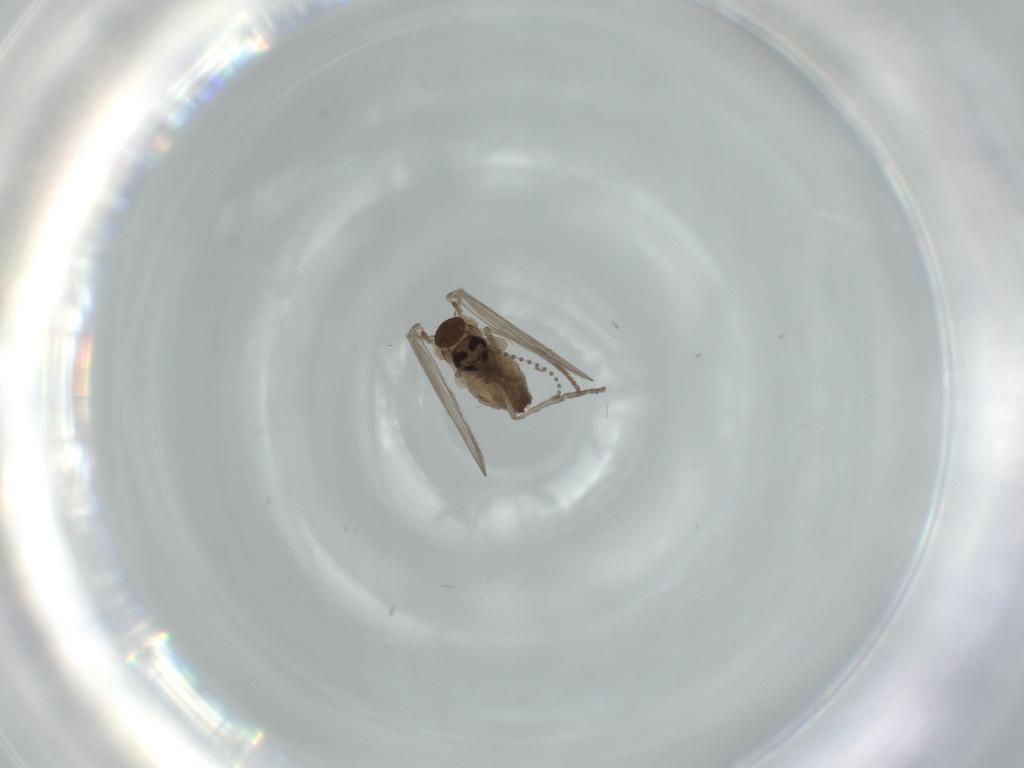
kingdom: Animalia
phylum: Arthropoda
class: Insecta
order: Diptera
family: Psychodidae
